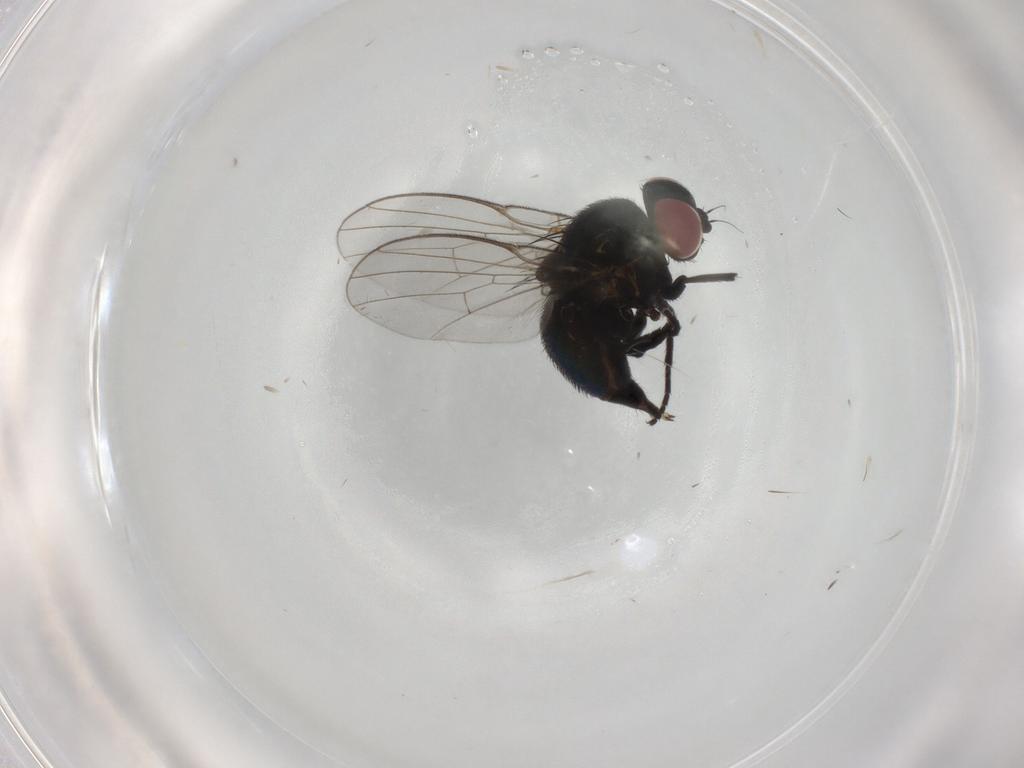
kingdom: Animalia
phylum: Arthropoda
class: Insecta
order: Diptera
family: Agromyzidae
